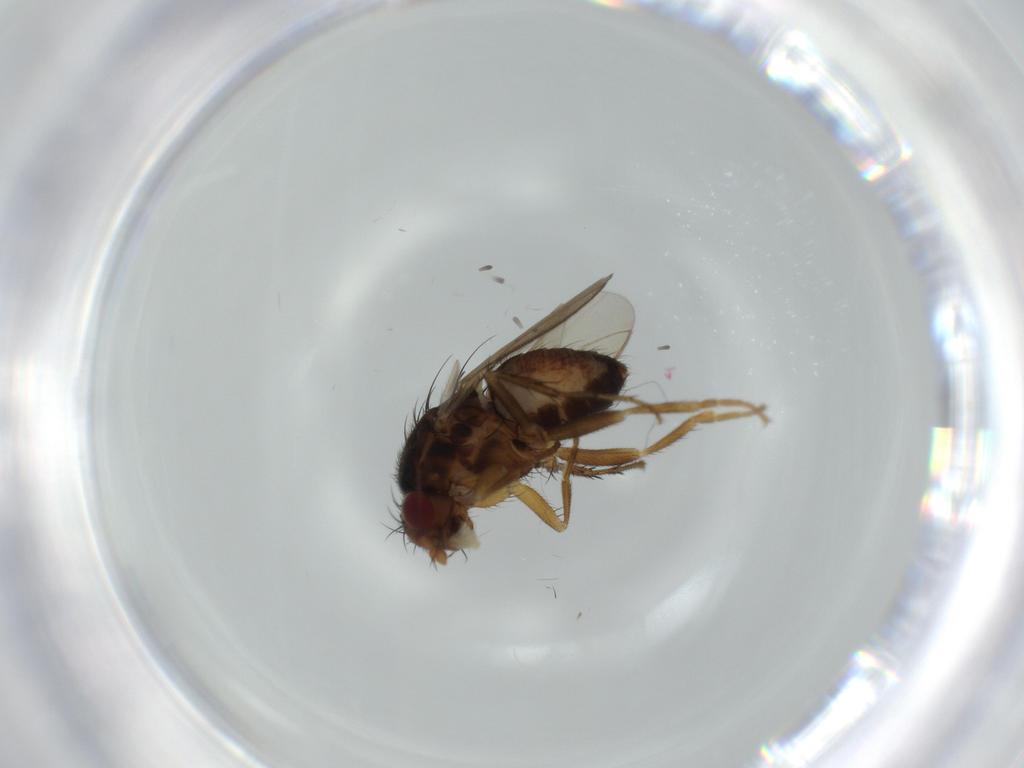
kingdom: Animalia
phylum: Arthropoda
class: Insecta
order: Diptera
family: Sphaeroceridae
